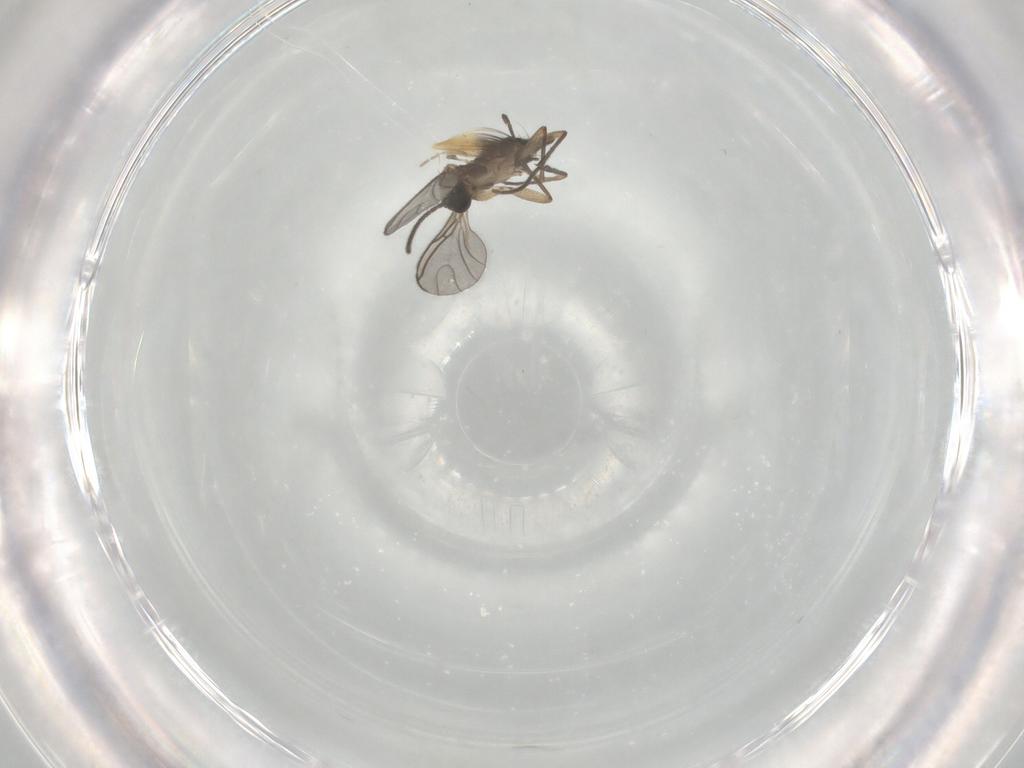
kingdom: Animalia
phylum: Arthropoda
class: Insecta
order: Diptera
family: Sciaridae
